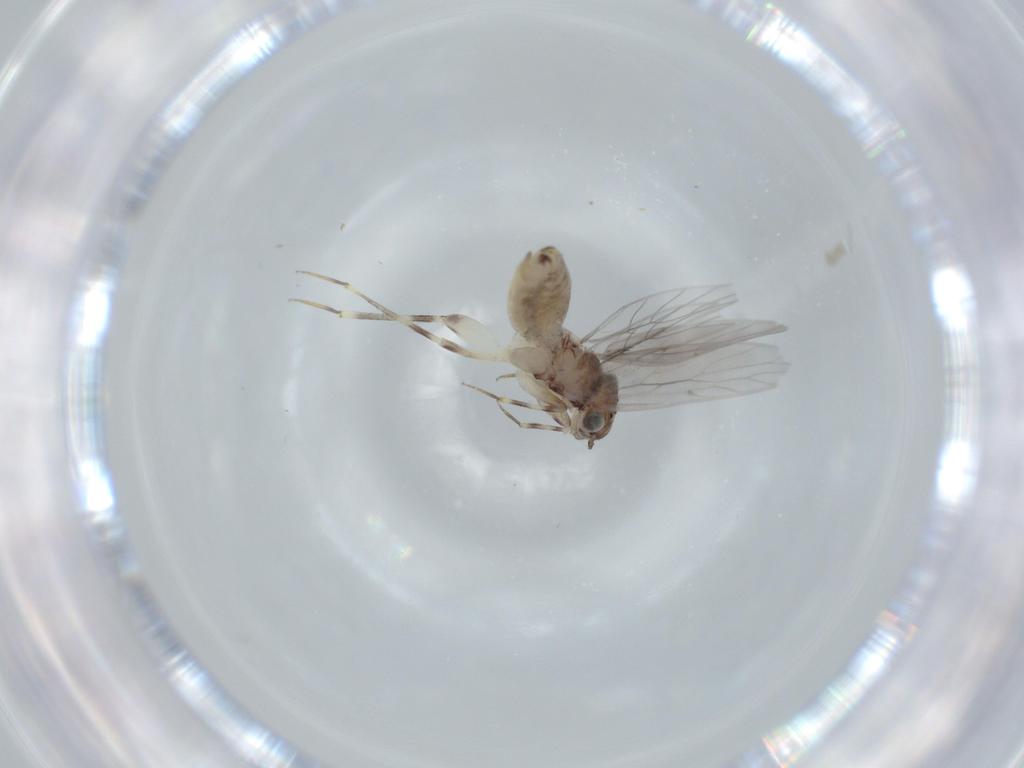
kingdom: Animalia
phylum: Arthropoda
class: Insecta
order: Psocodea
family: Lepidopsocidae
